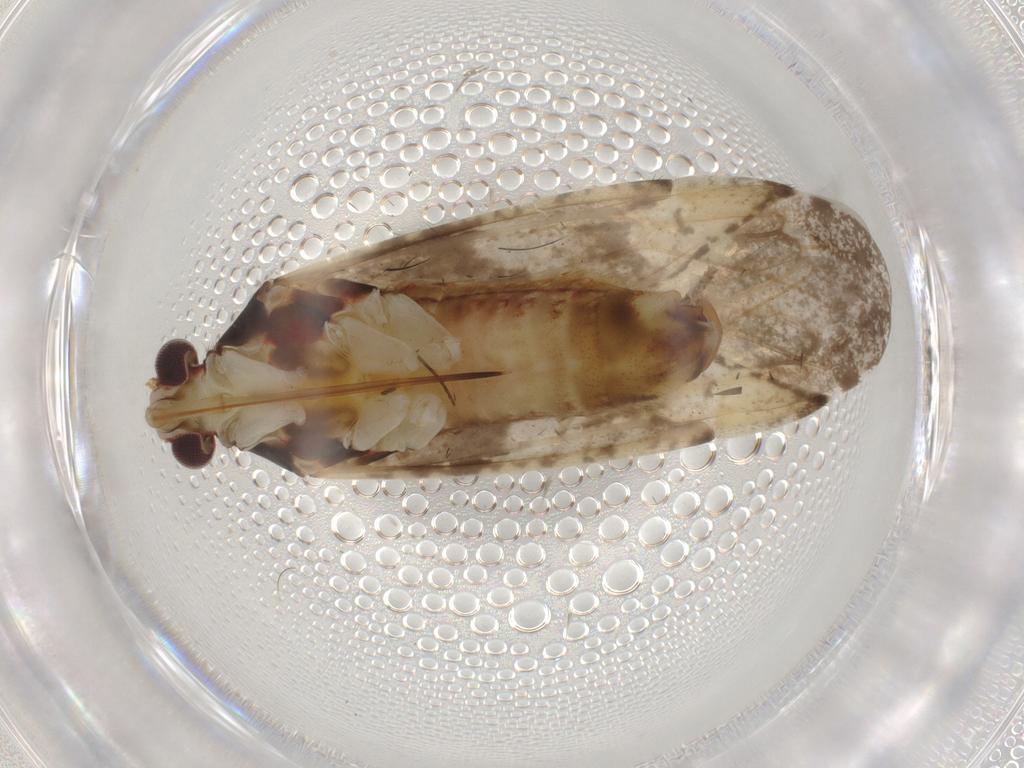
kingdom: Animalia
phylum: Arthropoda
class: Insecta
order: Hemiptera
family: Miridae
